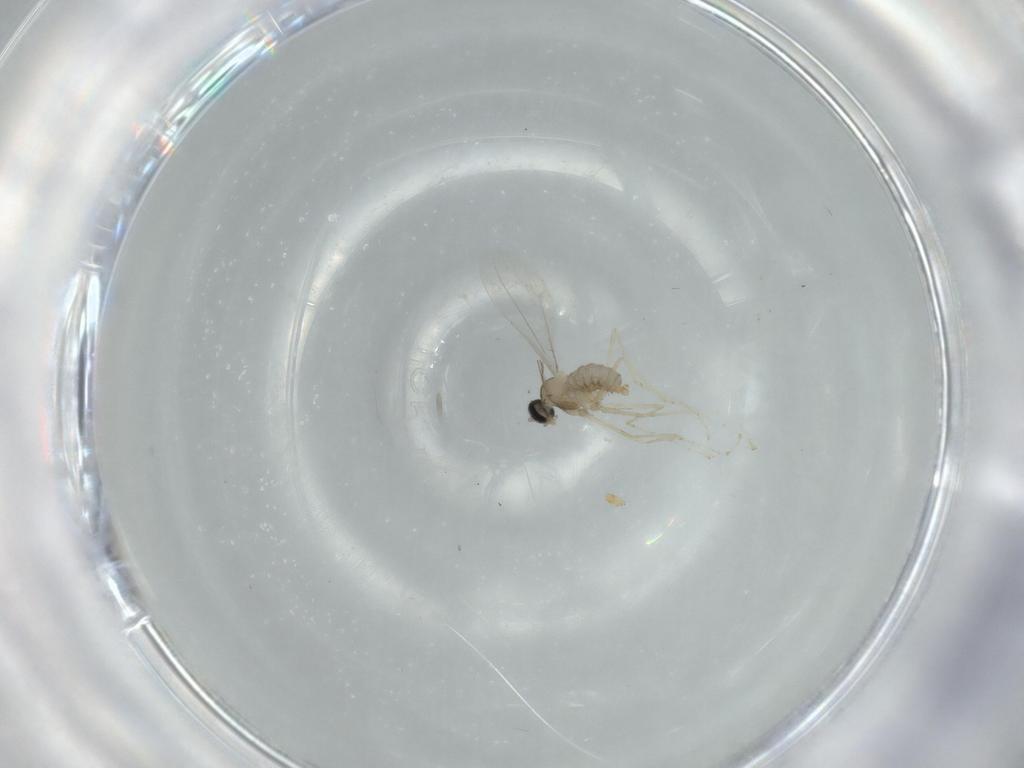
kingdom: Animalia
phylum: Arthropoda
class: Insecta
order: Diptera
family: Cecidomyiidae
